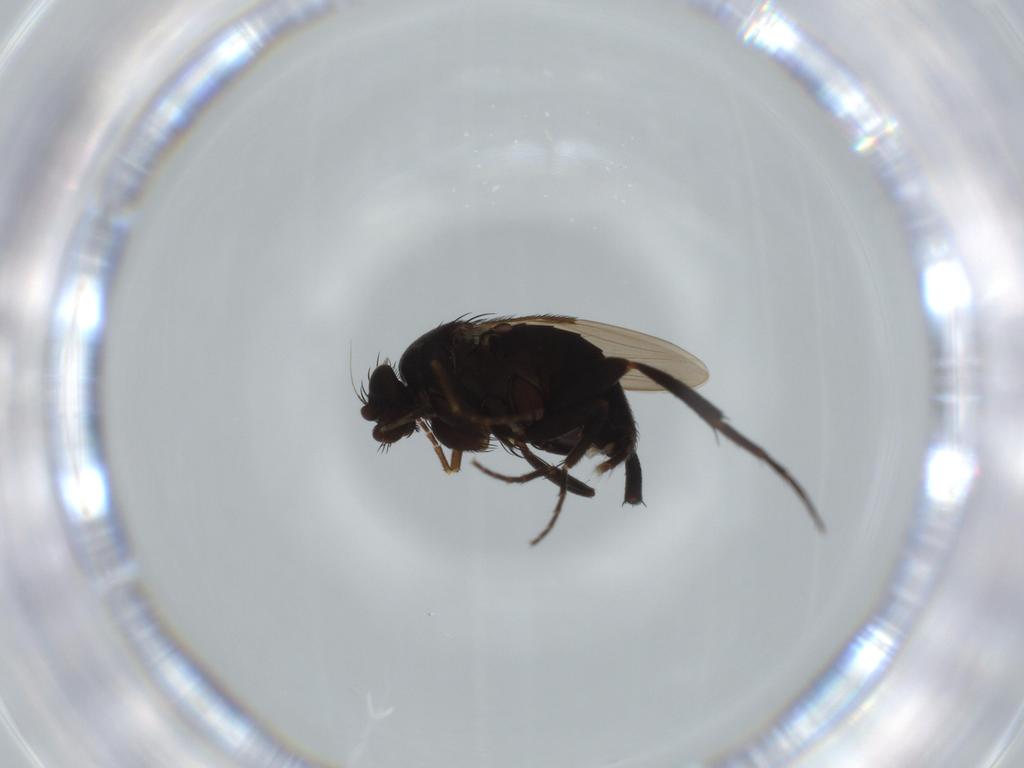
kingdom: Animalia
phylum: Arthropoda
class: Insecta
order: Diptera
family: Phoridae
